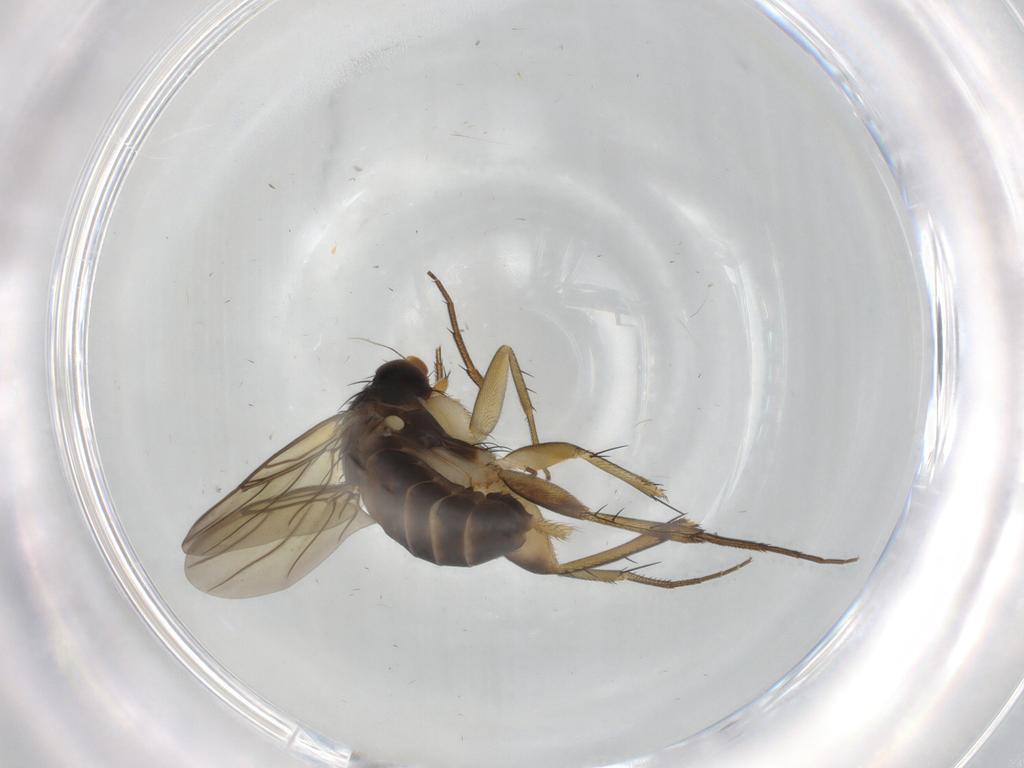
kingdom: Animalia
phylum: Arthropoda
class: Insecta
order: Diptera
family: Phoridae
